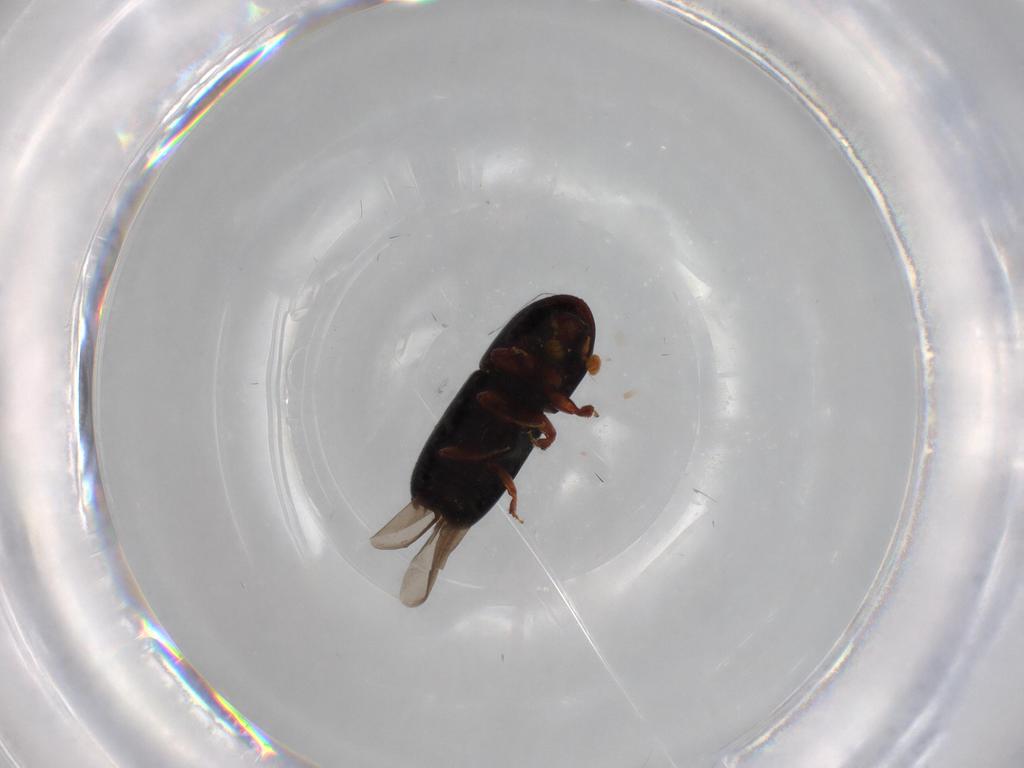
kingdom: Animalia
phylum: Arthropoda
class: Insecta
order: Coleoptera
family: Curculionidae
